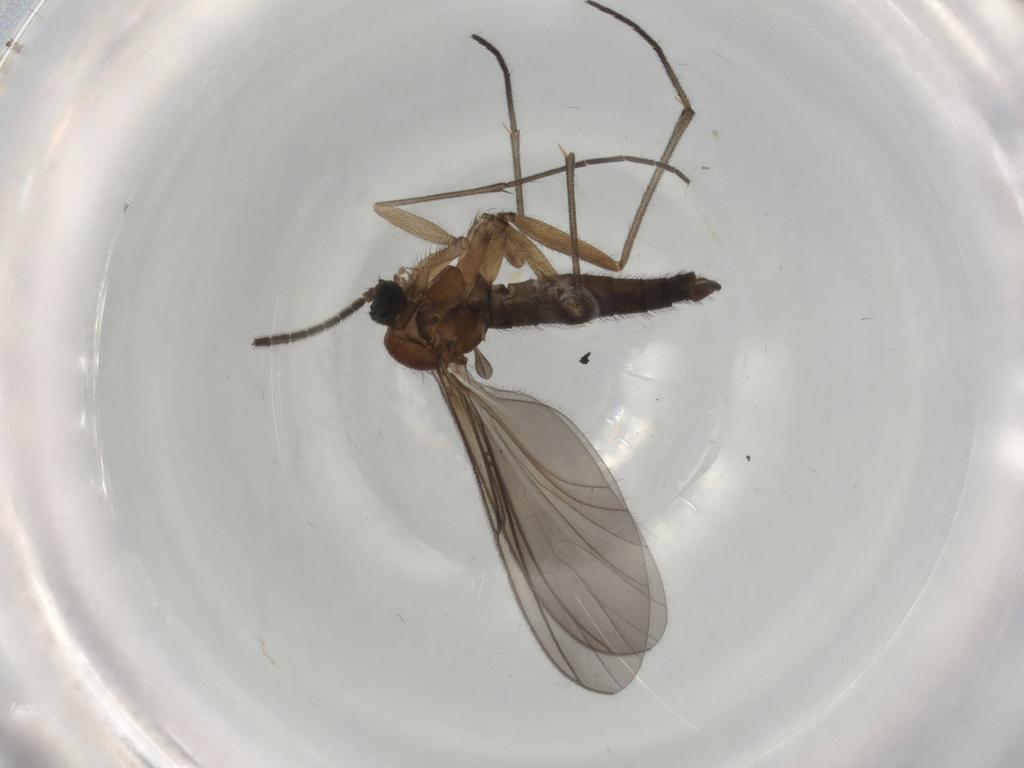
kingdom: Animalia
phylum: Arthropoda
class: Insecta
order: Diptera
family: Sciaridae
